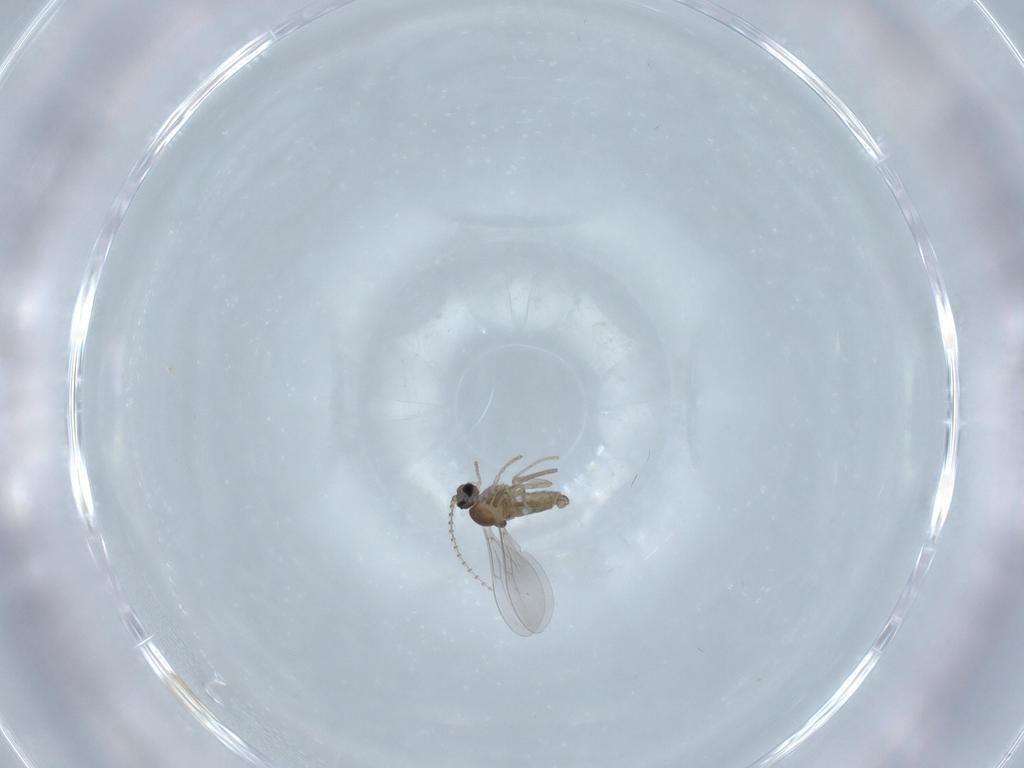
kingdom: Animalia
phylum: Arthropoda
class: Insecta
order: Diptera
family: Cecidomyiidae
